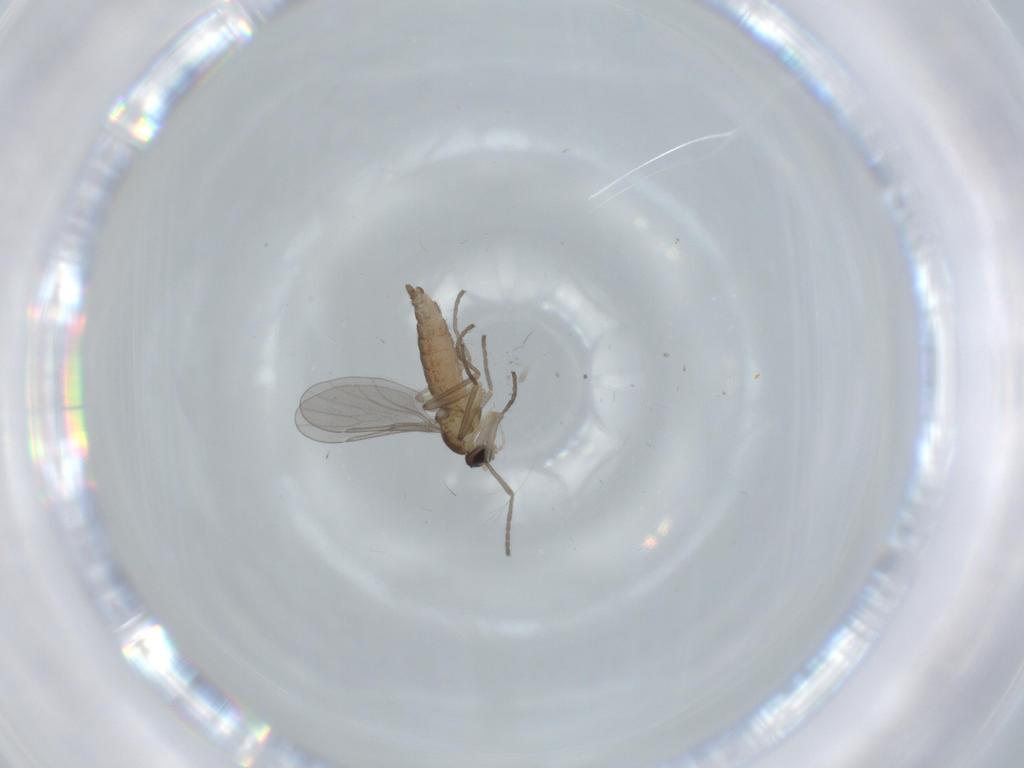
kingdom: Animalia
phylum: Arthropoda
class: Insecta
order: Diptera
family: Cecidomyiidae
